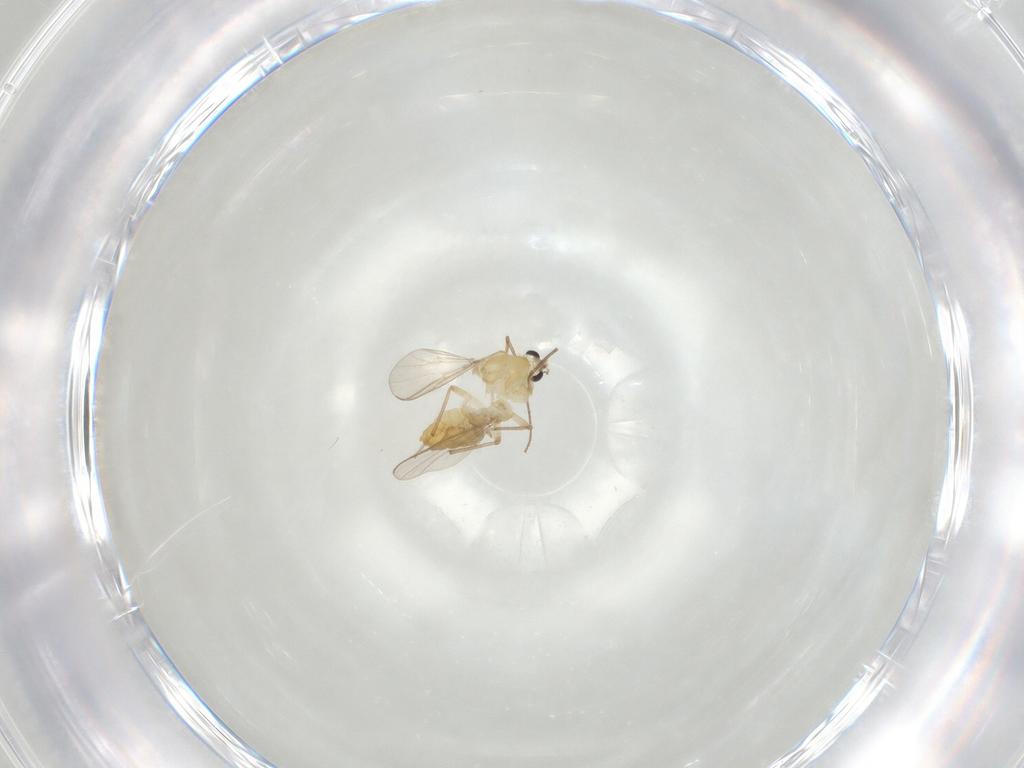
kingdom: Animalia
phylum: Arthropoda
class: Insecta
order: Diptera
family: Chironomidae
